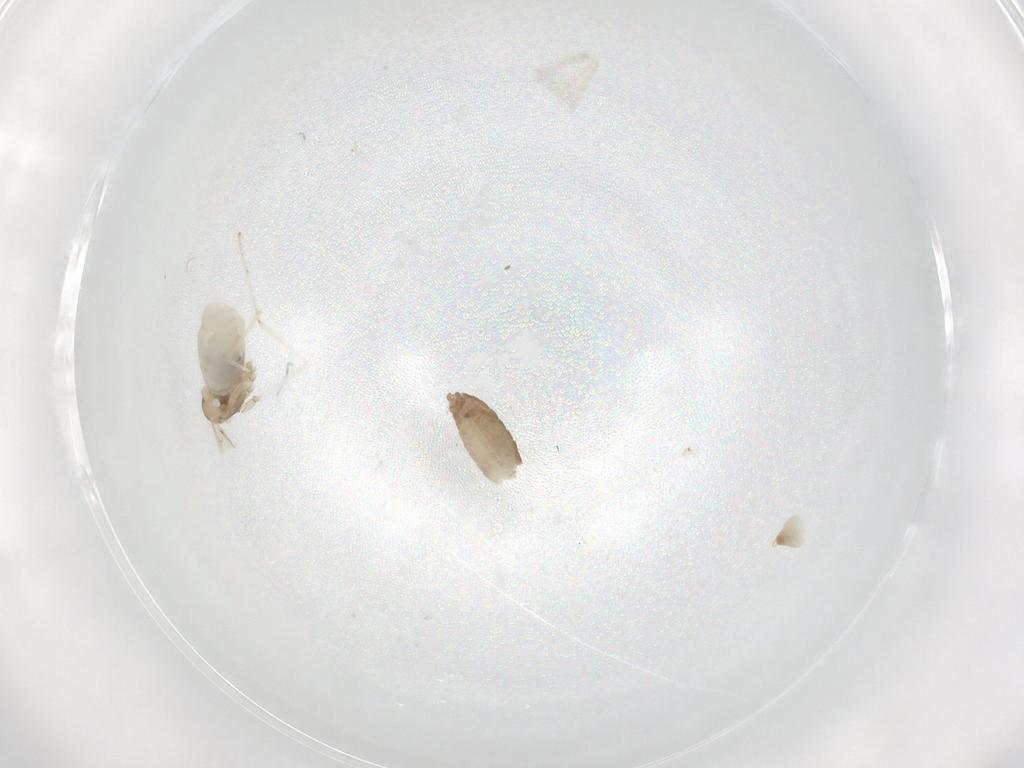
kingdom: Animalia
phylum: Arthropoda
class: Insecta
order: Diptera
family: Chironomidae
